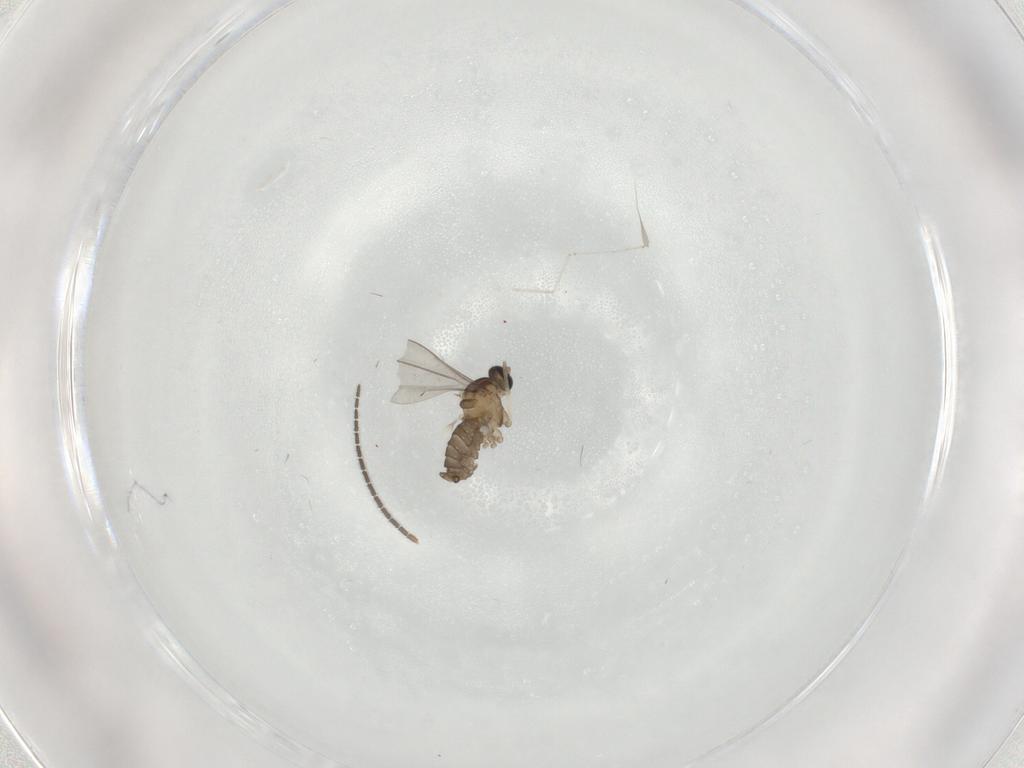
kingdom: Animalia
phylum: Arthropoda
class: Insecta
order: Diptera
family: Cecidomyiidae
